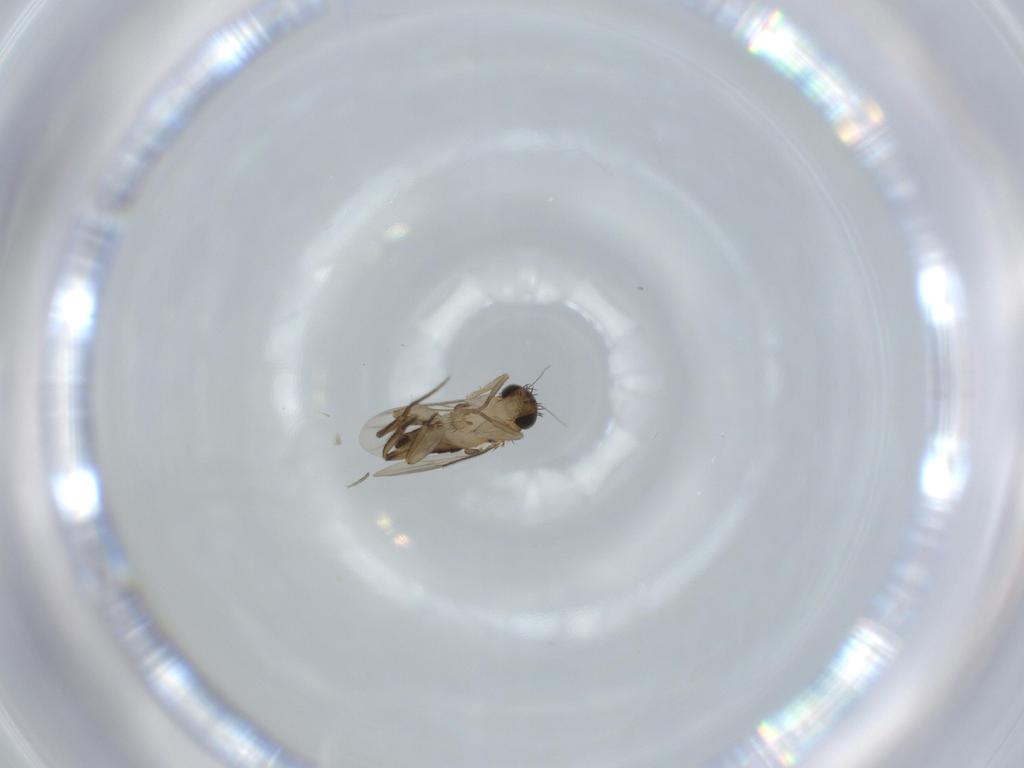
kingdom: Animalia
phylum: Arthropoda
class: Insecta
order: Diptera
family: Phoridae
